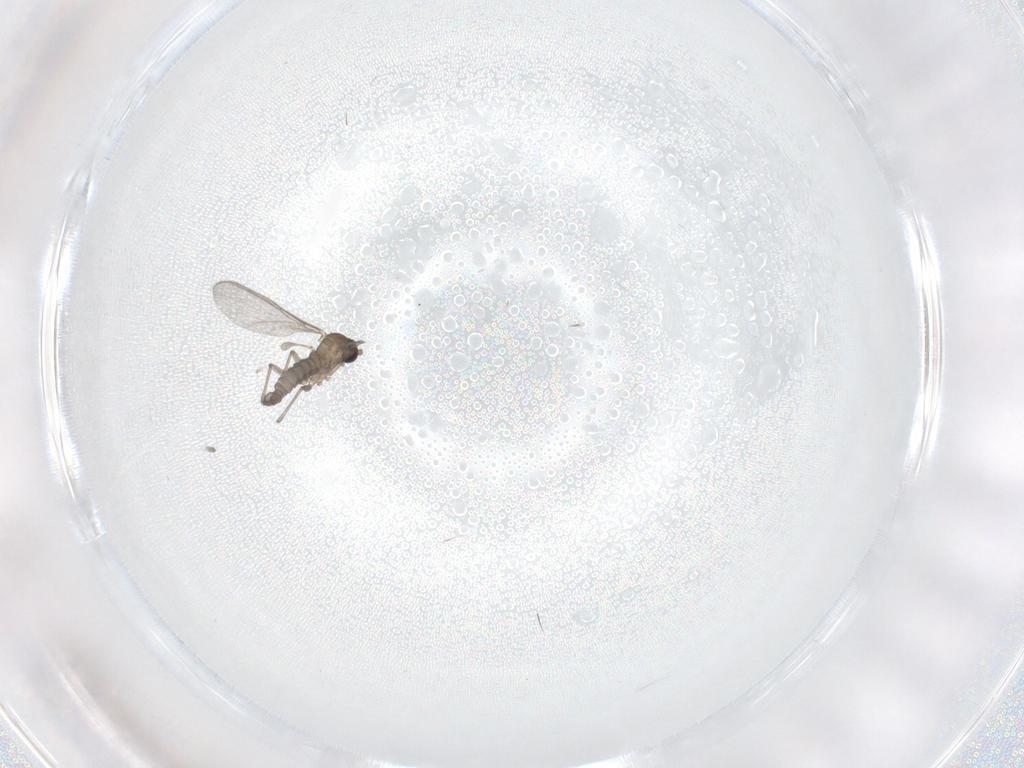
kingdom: Animalia
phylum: Arthropoda
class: Insecta
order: Diptera
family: Sciaridae
